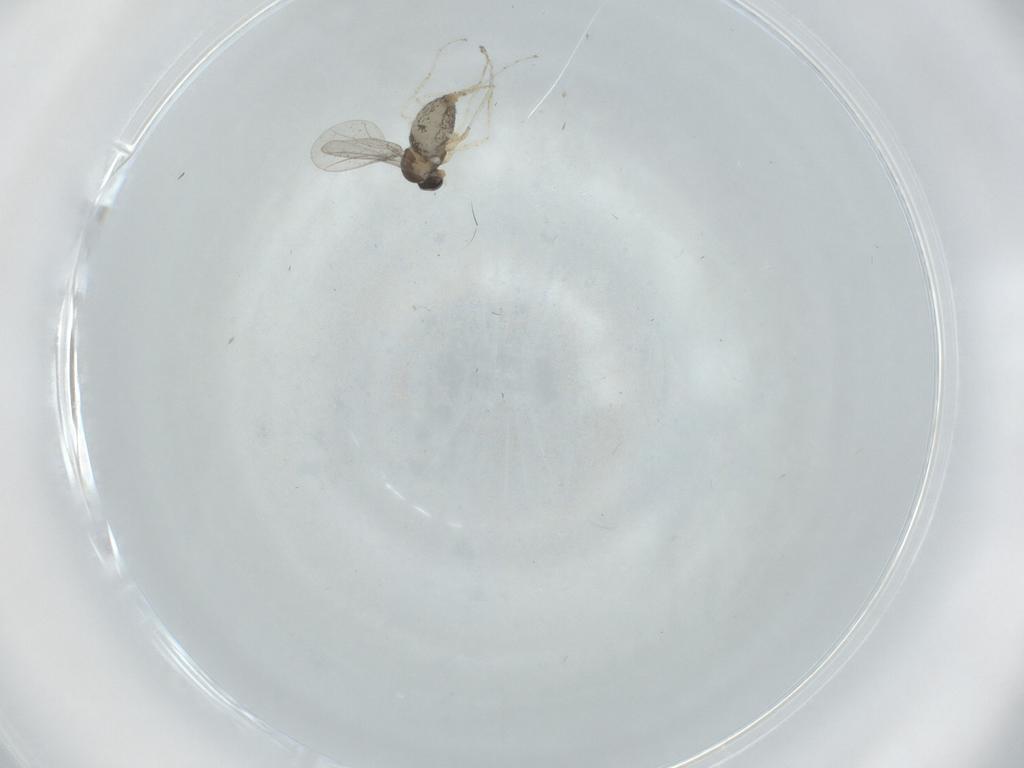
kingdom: Animalia
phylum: Arthropoda
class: Insecta
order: Diptera
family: Cecidomyiidae
